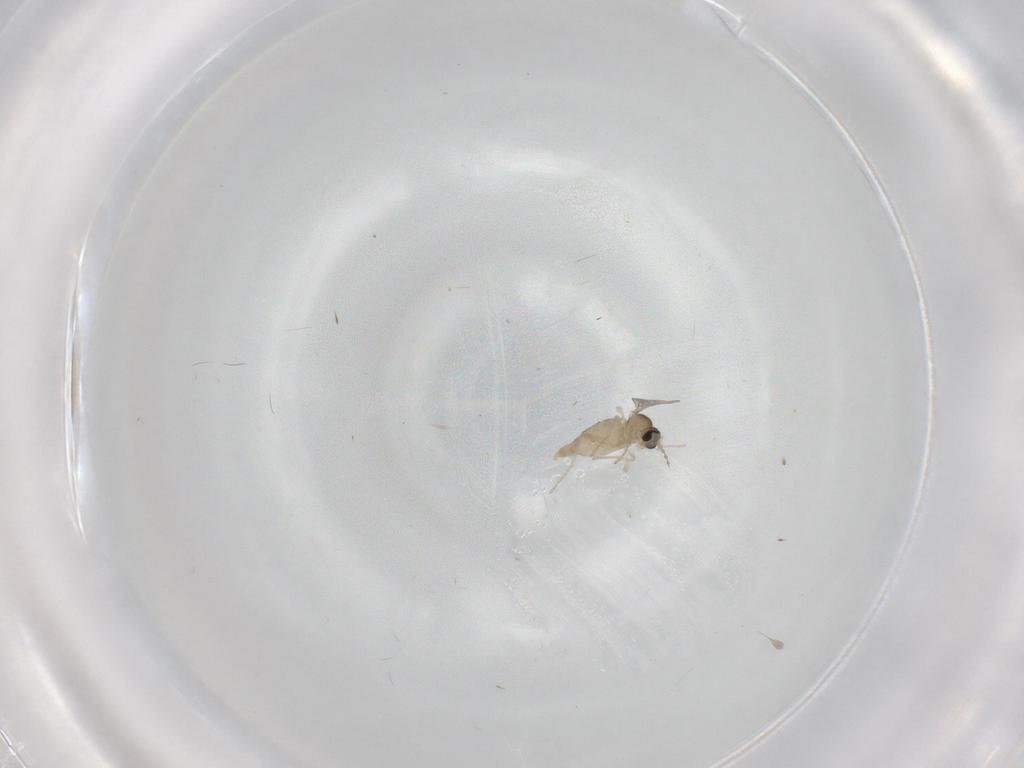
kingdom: Animalia
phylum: Arthropoda
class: Insecta
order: Diptera
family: Cecidomyiidae
